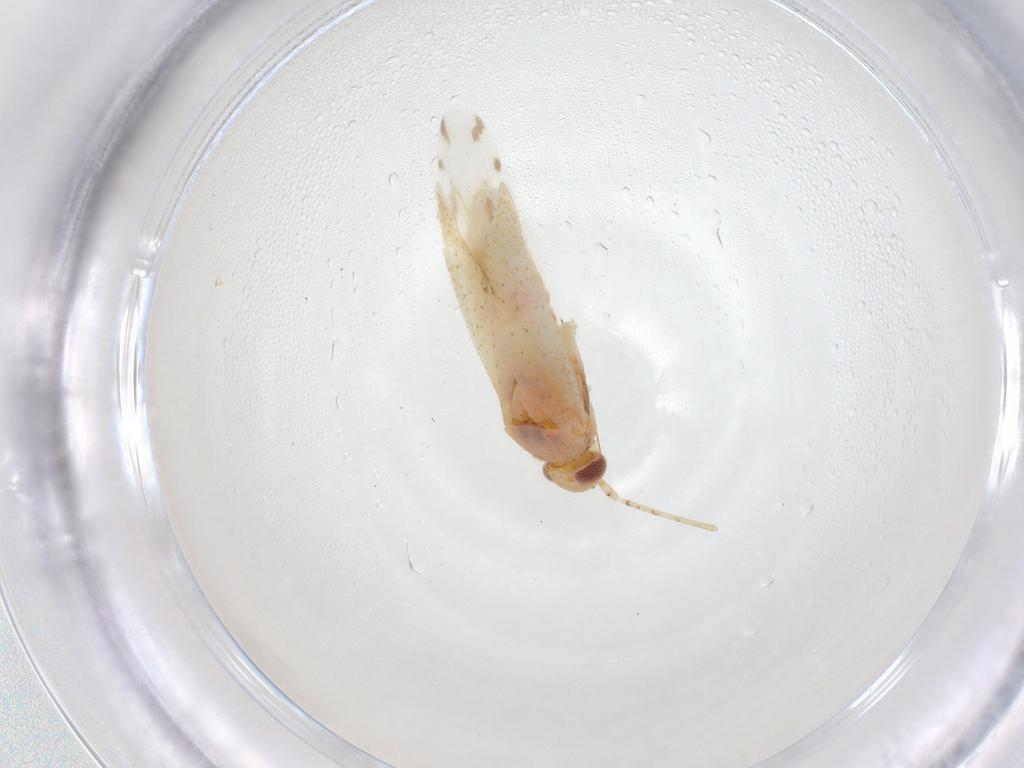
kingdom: Animalia
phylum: Arthropoda
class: Insecta
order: Hemiptera
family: Miridae
